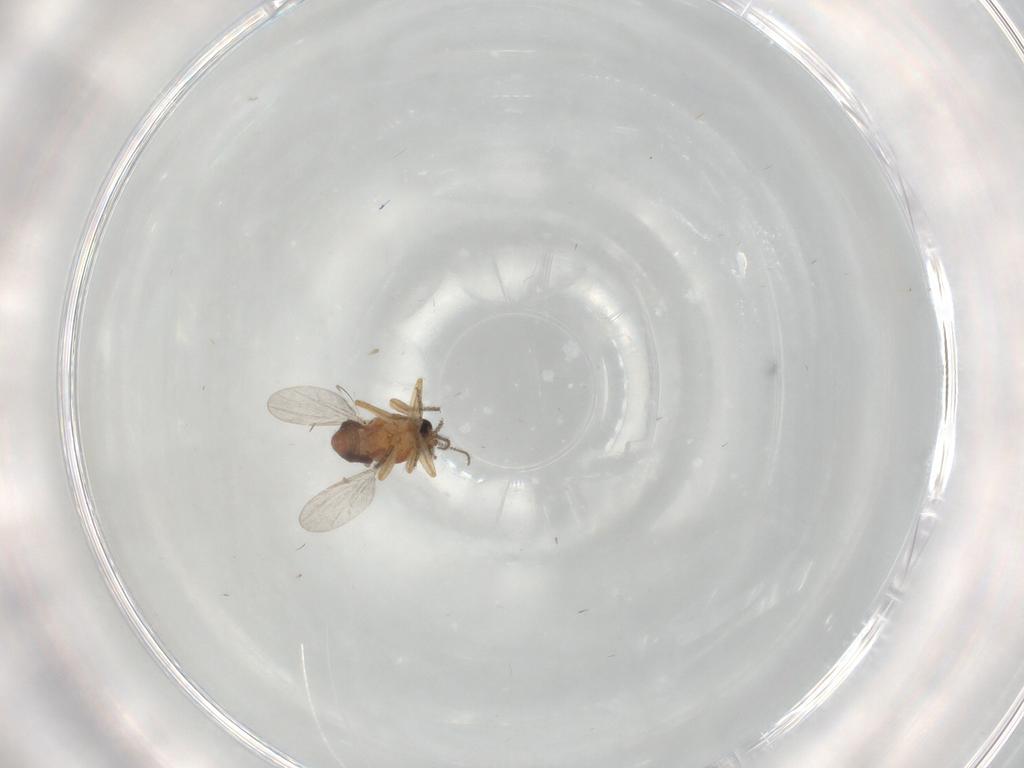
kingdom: Animalia
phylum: Arthropoda
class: Insecta
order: Diptera
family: Ceratopogonidae
